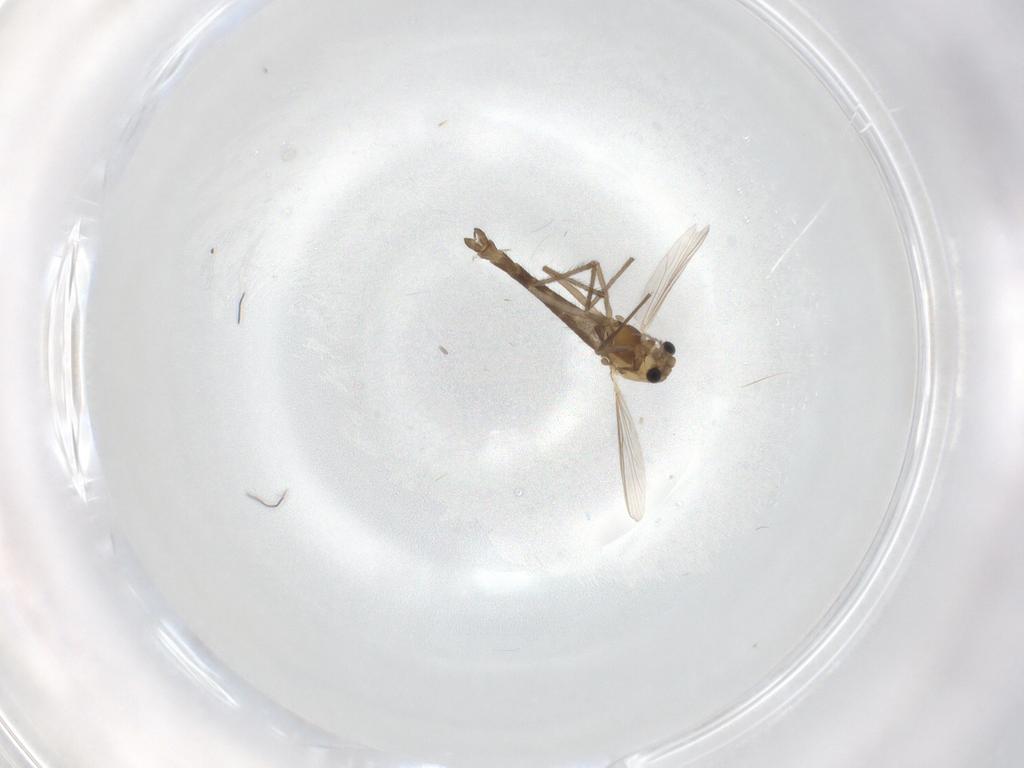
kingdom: Animalia
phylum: Arthropoda
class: Insecta
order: Diptera
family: Chironomidae
